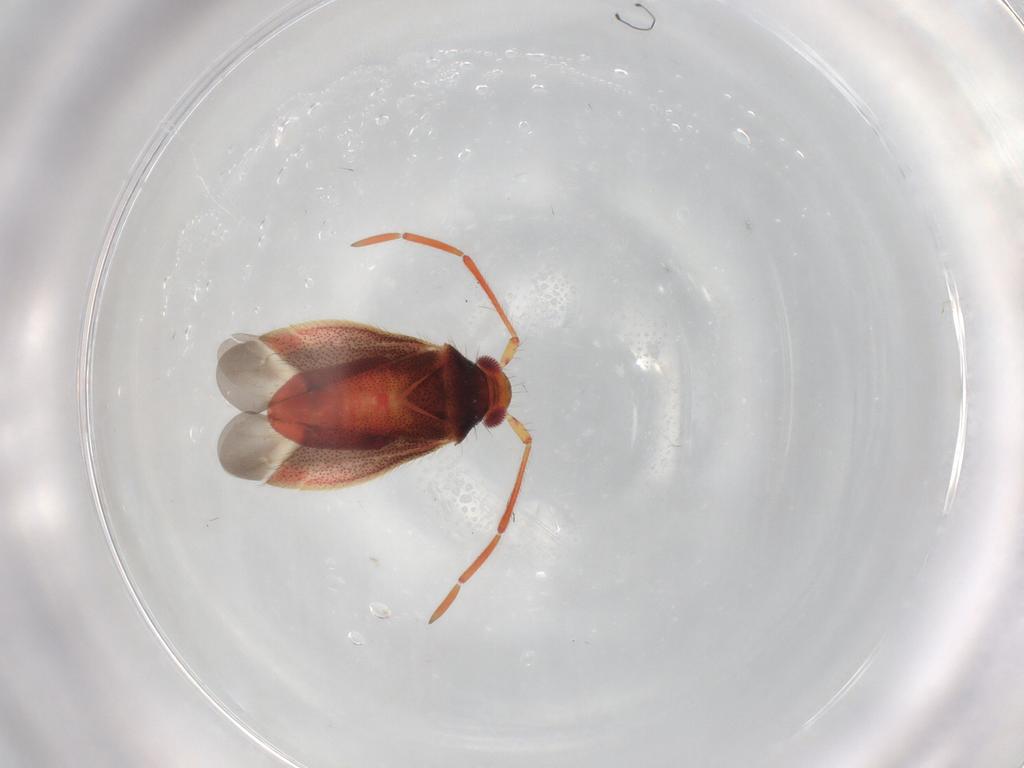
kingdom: Animalia
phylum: Arthropoda
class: Insecta
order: Hemiptera
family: Miridae
